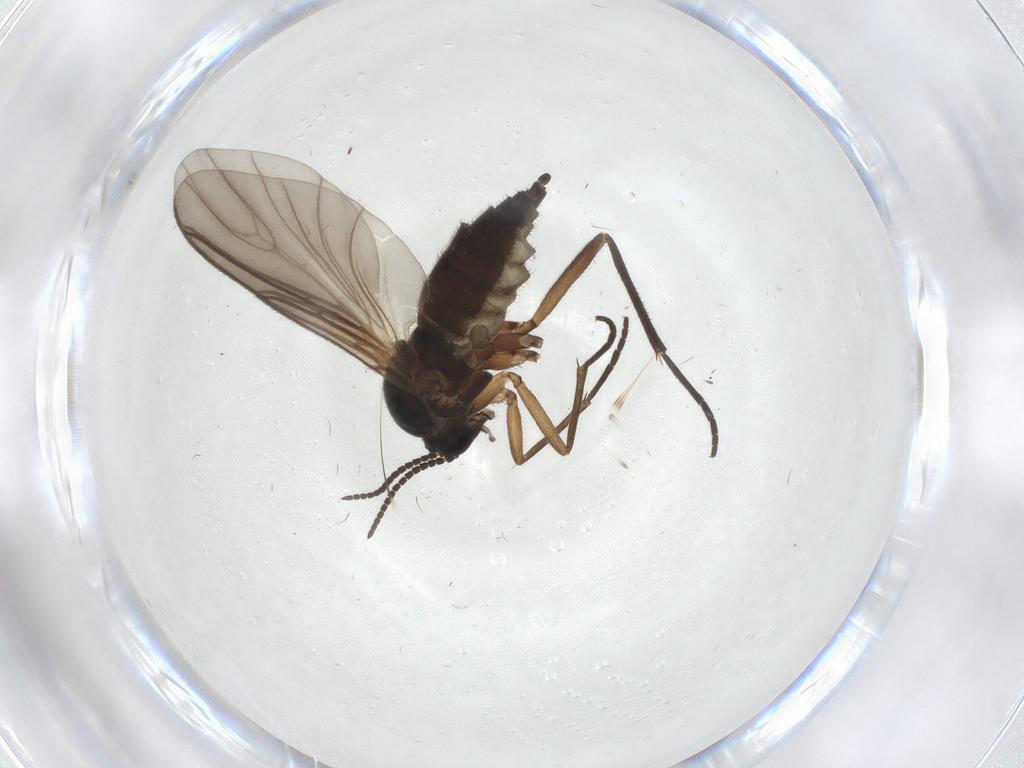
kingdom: Animalia
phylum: Arthropoda
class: Insecta
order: Diptera
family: Sciaridae
